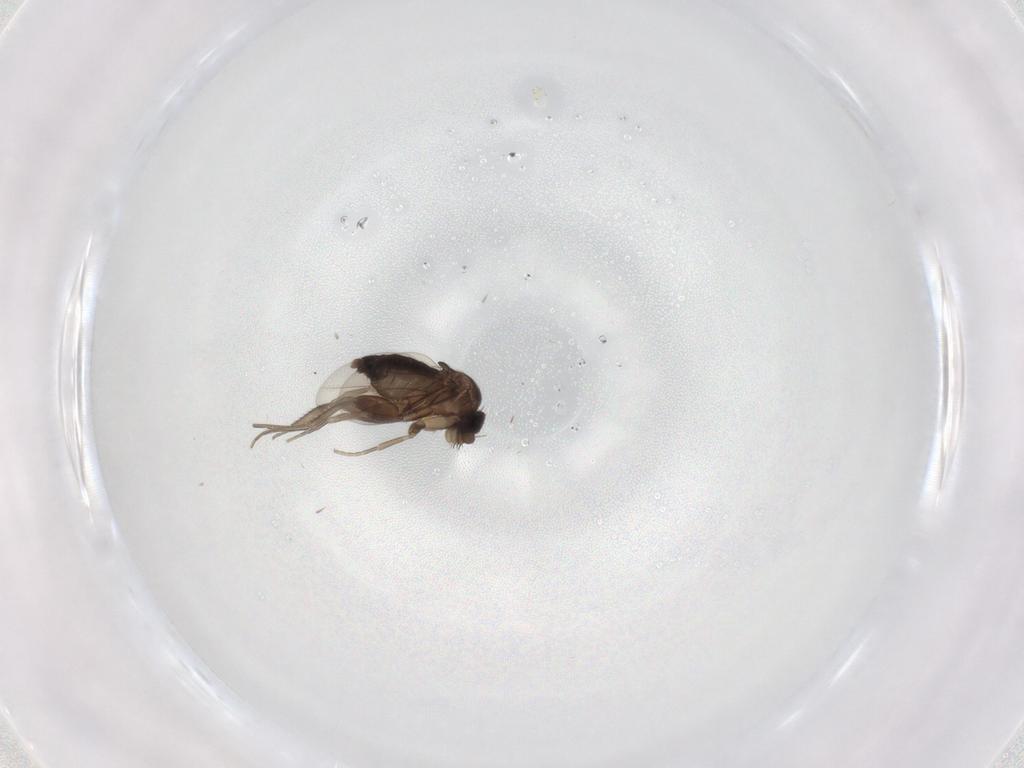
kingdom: Animalia
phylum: Arthropoda
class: Insecta
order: Diptera
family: Phoridae
